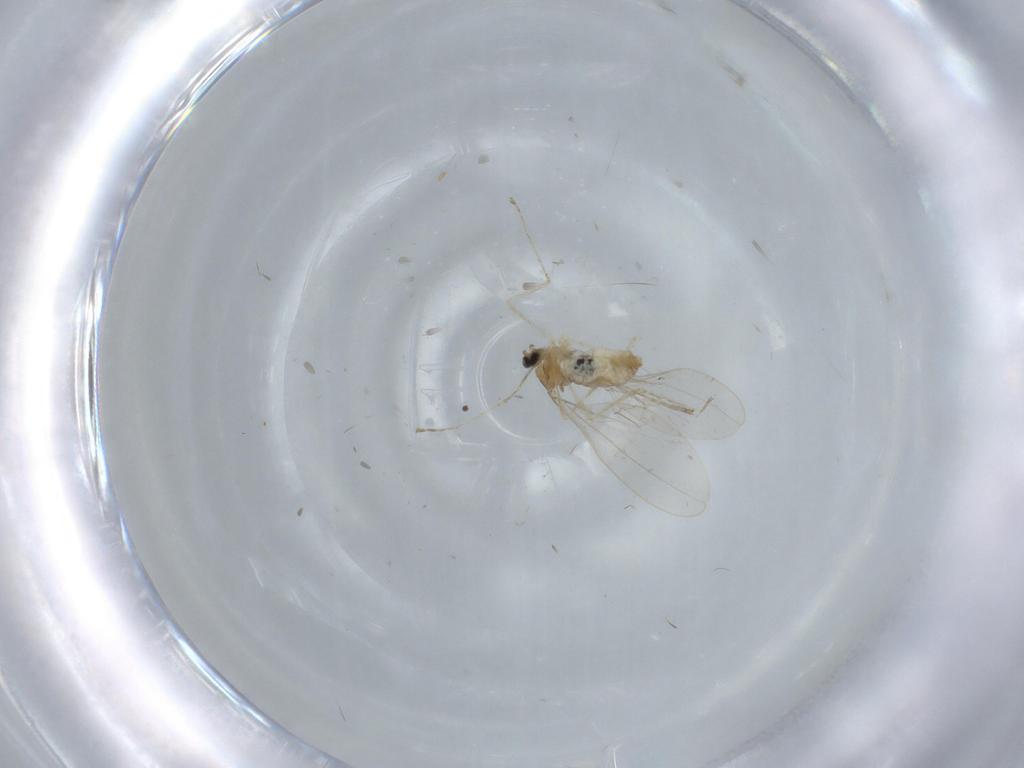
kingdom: Animalia
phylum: Arthropoda
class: Insecta
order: Diptera
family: Cecidomyiidae
